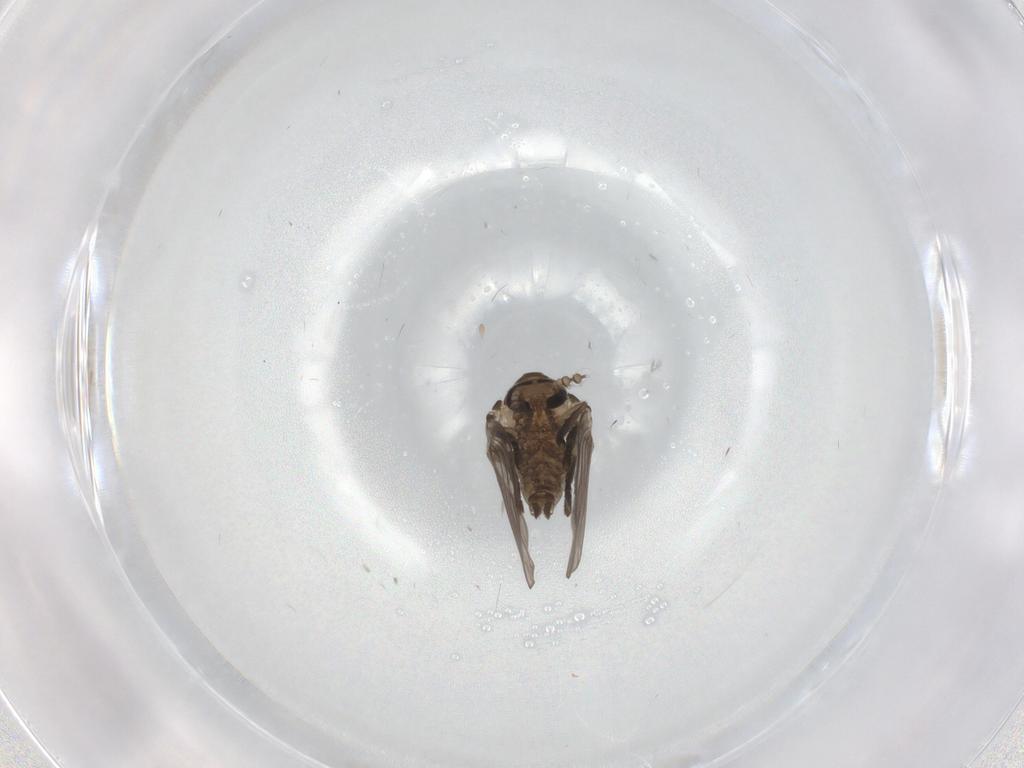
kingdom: Animalia
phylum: Arthropoda
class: Insecta
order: Diptera
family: Psychodidae
